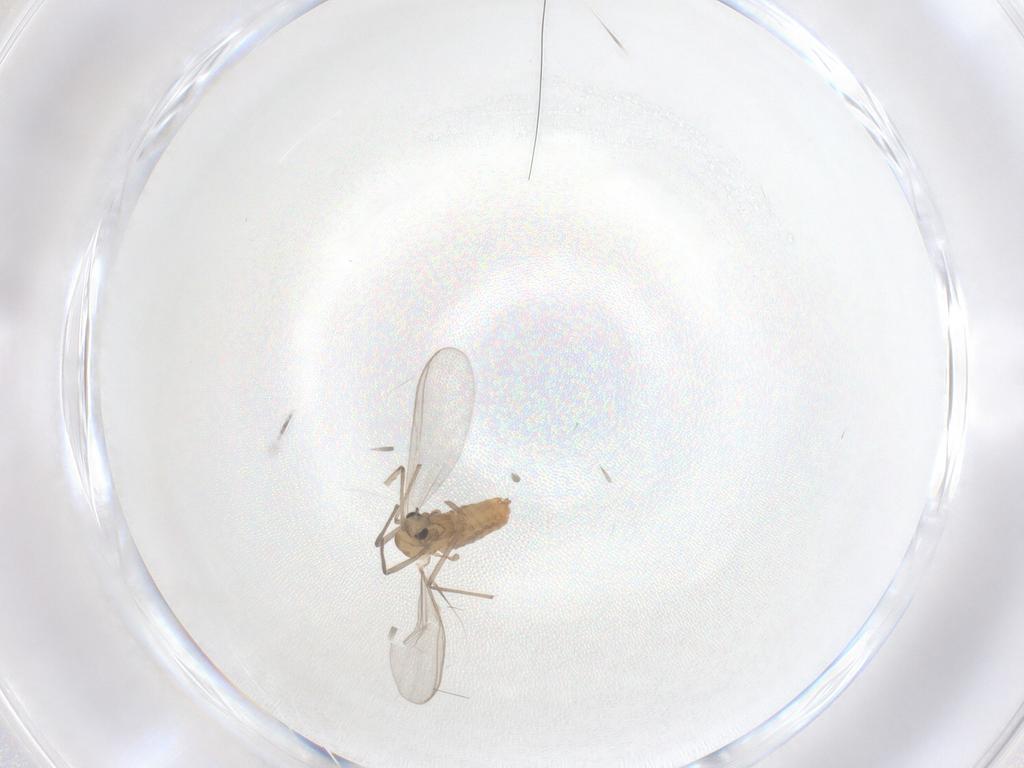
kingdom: Animalia
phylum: Arthropoda
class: Insecta
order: Diptera
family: Chironomidae
